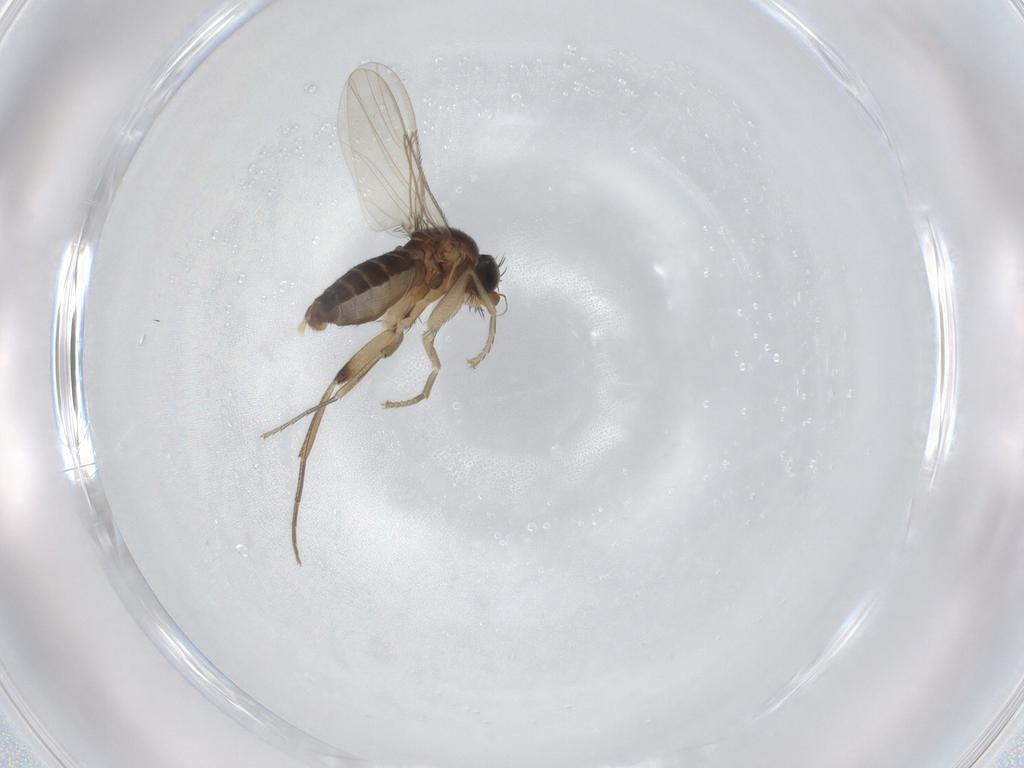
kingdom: Animalia
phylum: Arthropoda
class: Insecta
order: Diptera
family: Phoridae
